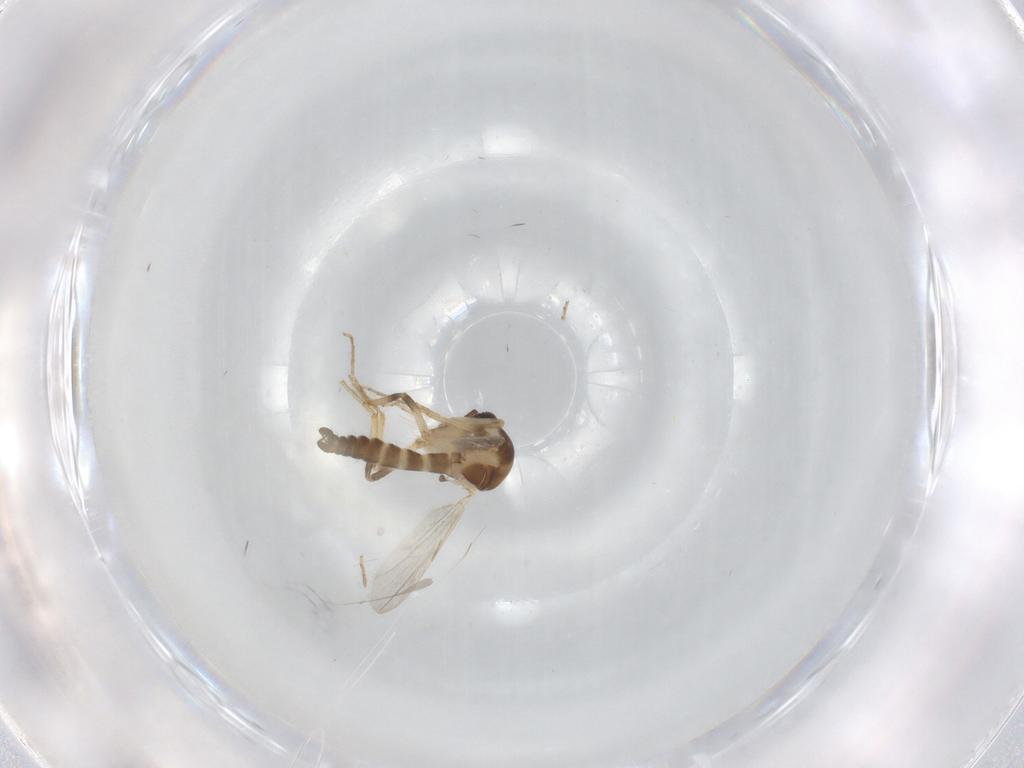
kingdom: Animalia
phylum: Arthropoda
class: Insecta
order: Diptera
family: Ceratopogonidae
